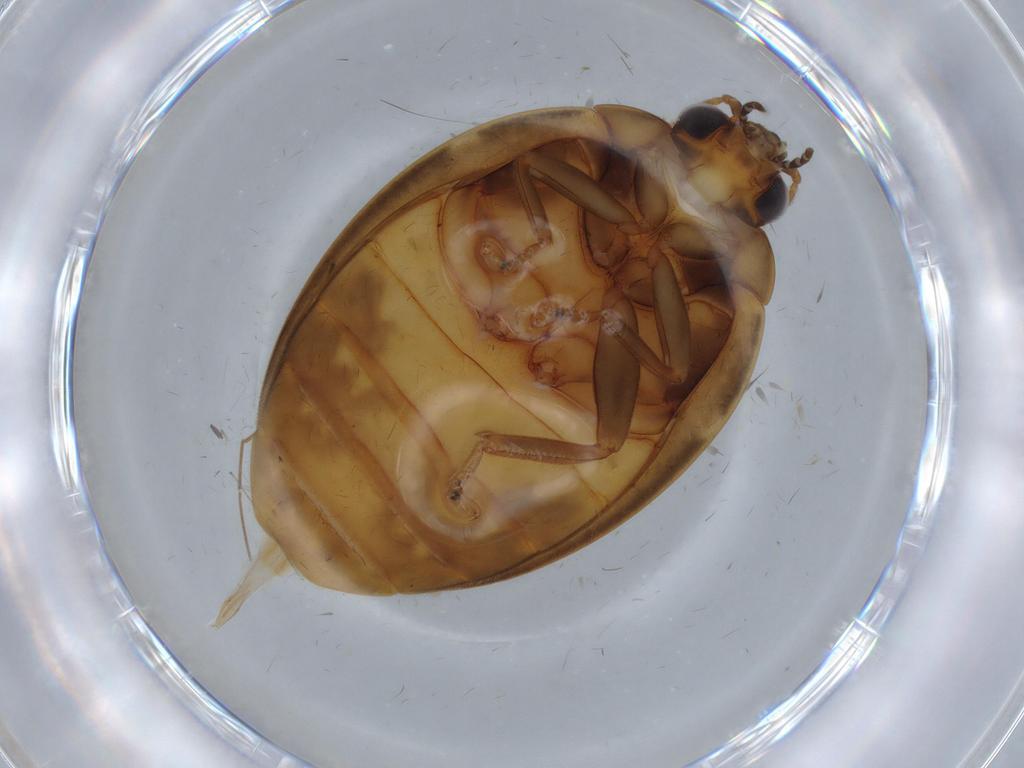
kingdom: Animalia
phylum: Arthropoda
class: Insecta
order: Coleoptera
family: Scirtidae
